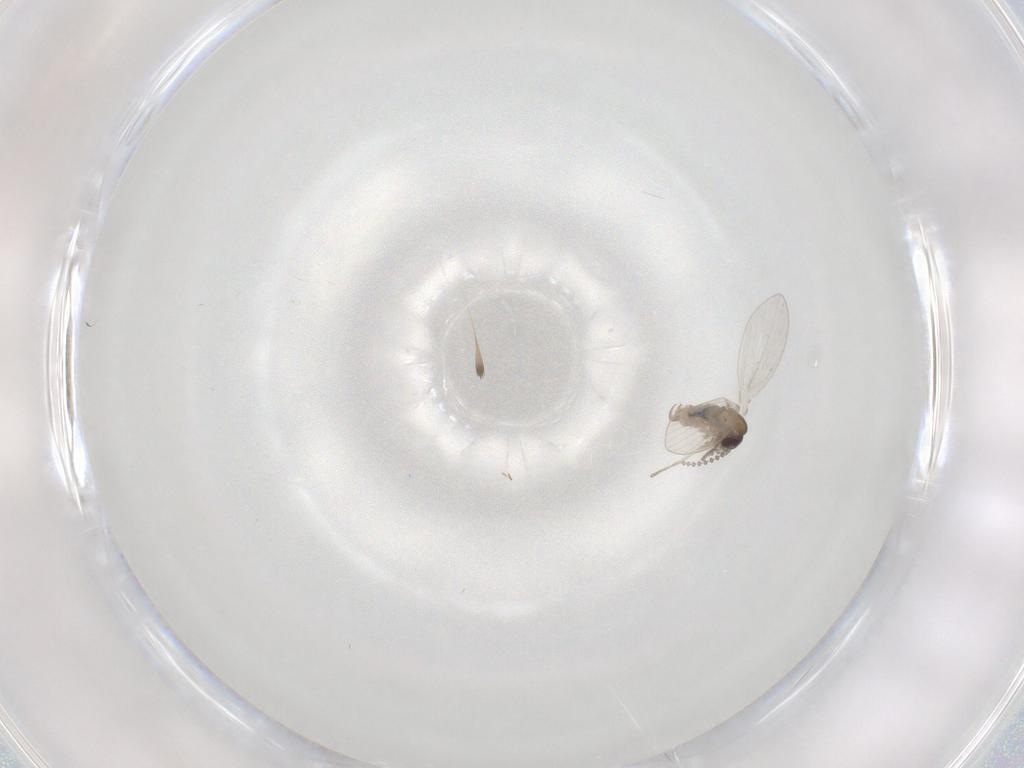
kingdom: Animalia
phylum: Arthropoda
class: Insecta
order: Diptera
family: Psychodidae
